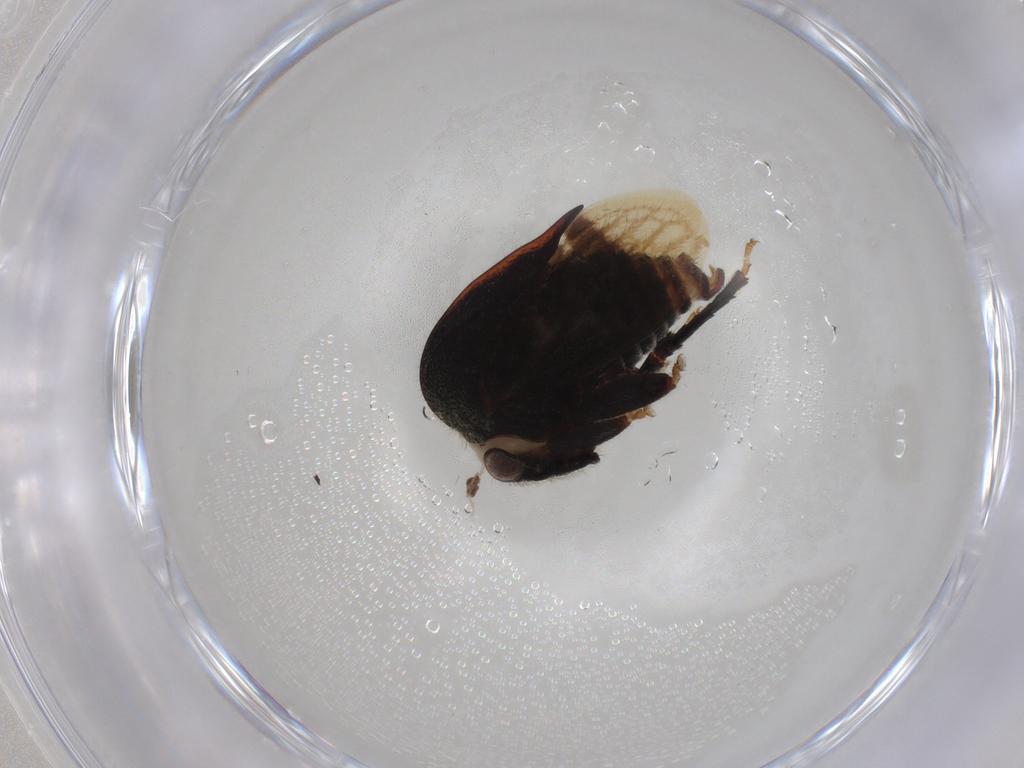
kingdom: Animalia
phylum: Arthropoda
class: Insecta
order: Hemiptera
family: Membracidae
